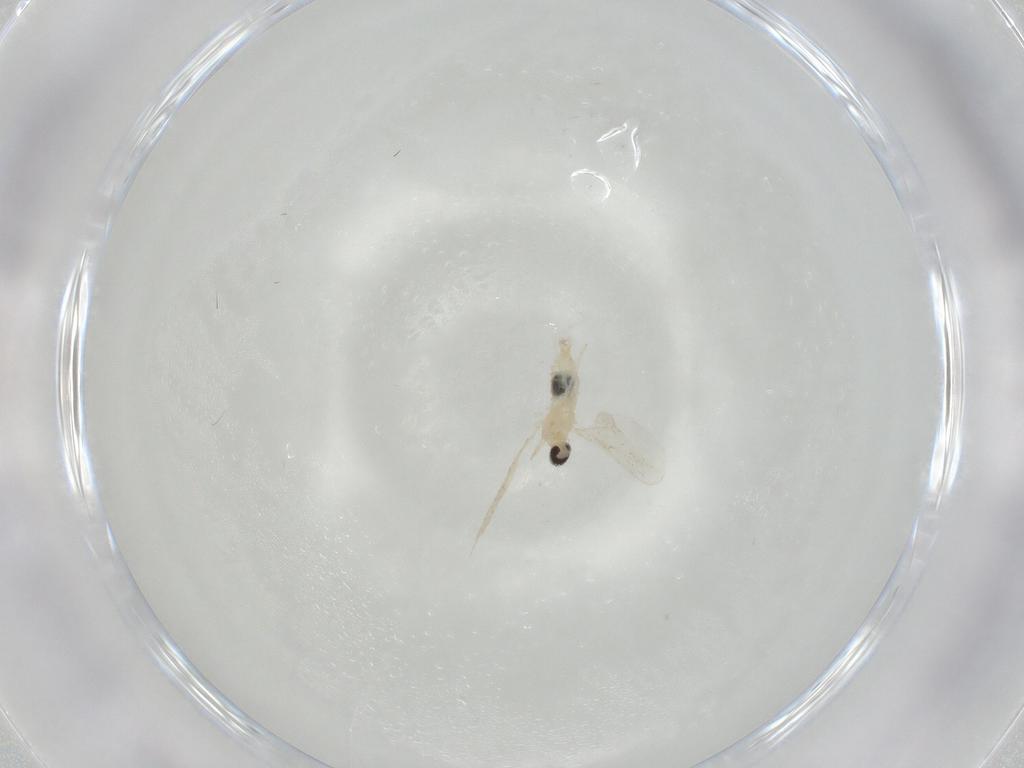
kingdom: Animalia
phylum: Arthropoda
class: Insecta
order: Diptera
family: Cecidomyiidae
